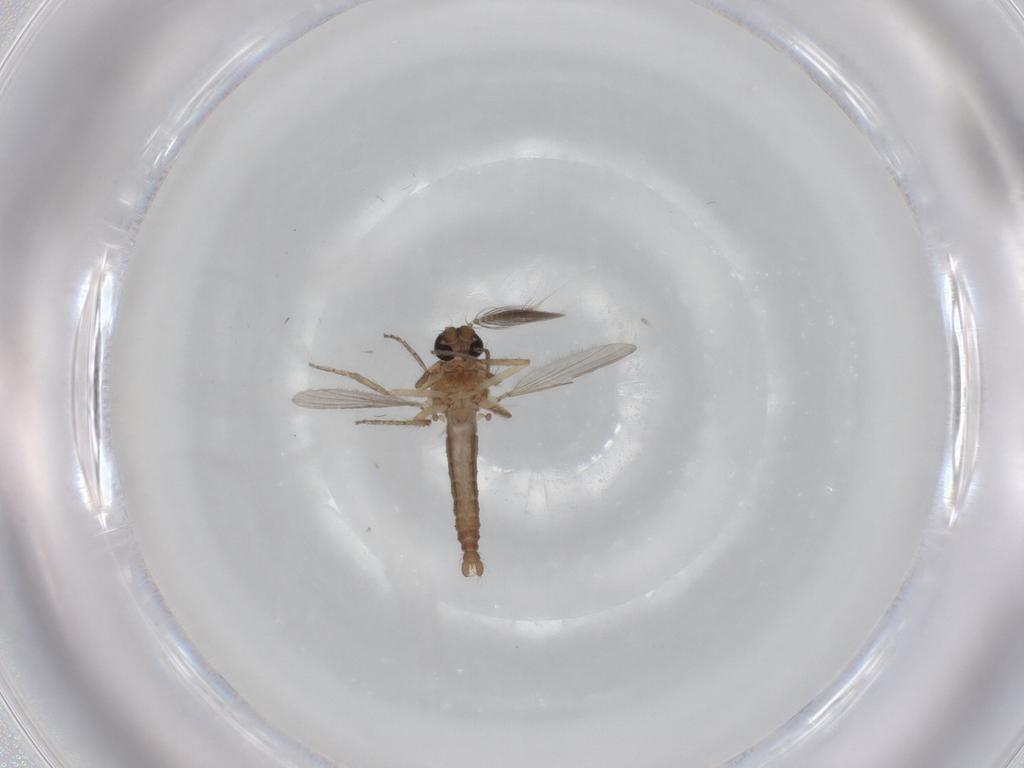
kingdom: Animalia
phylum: Arthropoda
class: Insecta
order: Diptera
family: Ceratopogonidae
